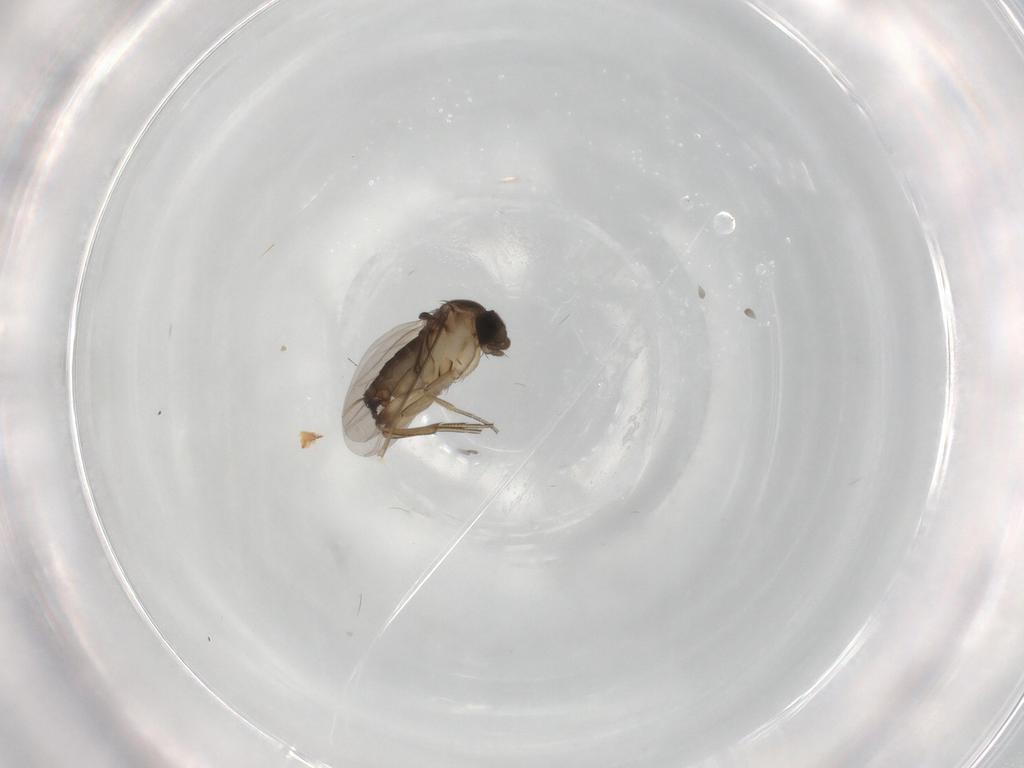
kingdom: Animalia
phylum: Arthropoda
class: Insecta
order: Diptera
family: Phoridae
